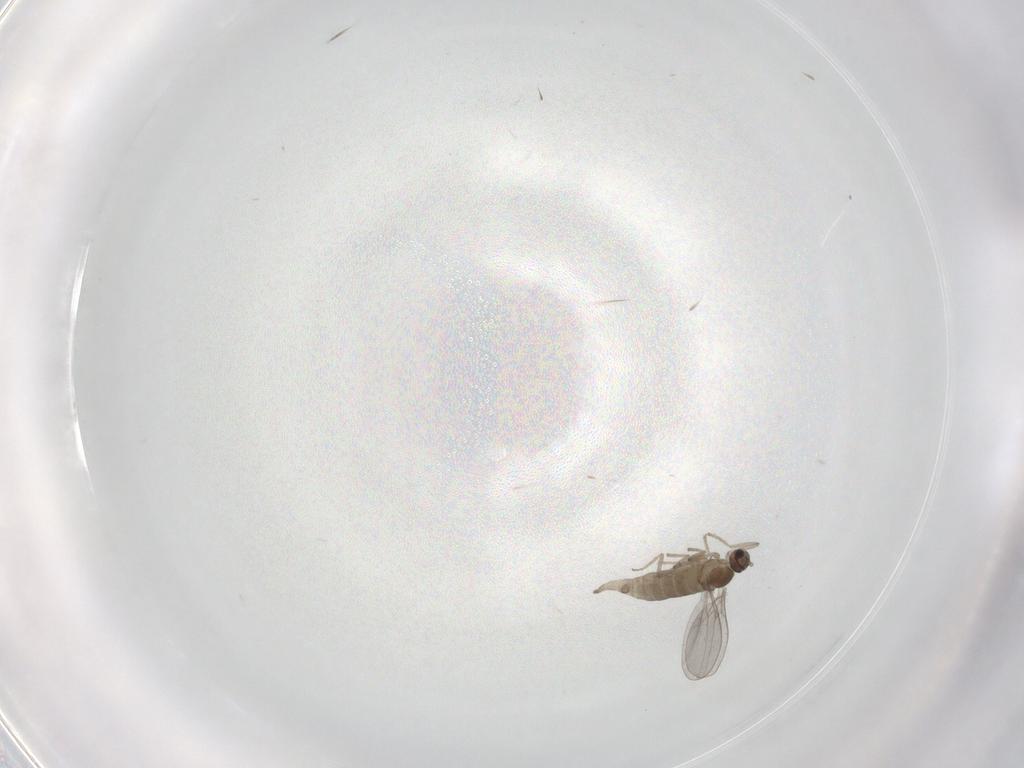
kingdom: Animalia
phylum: Arthropoda
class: Insecta
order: Diptera
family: Cecidomyiidae
